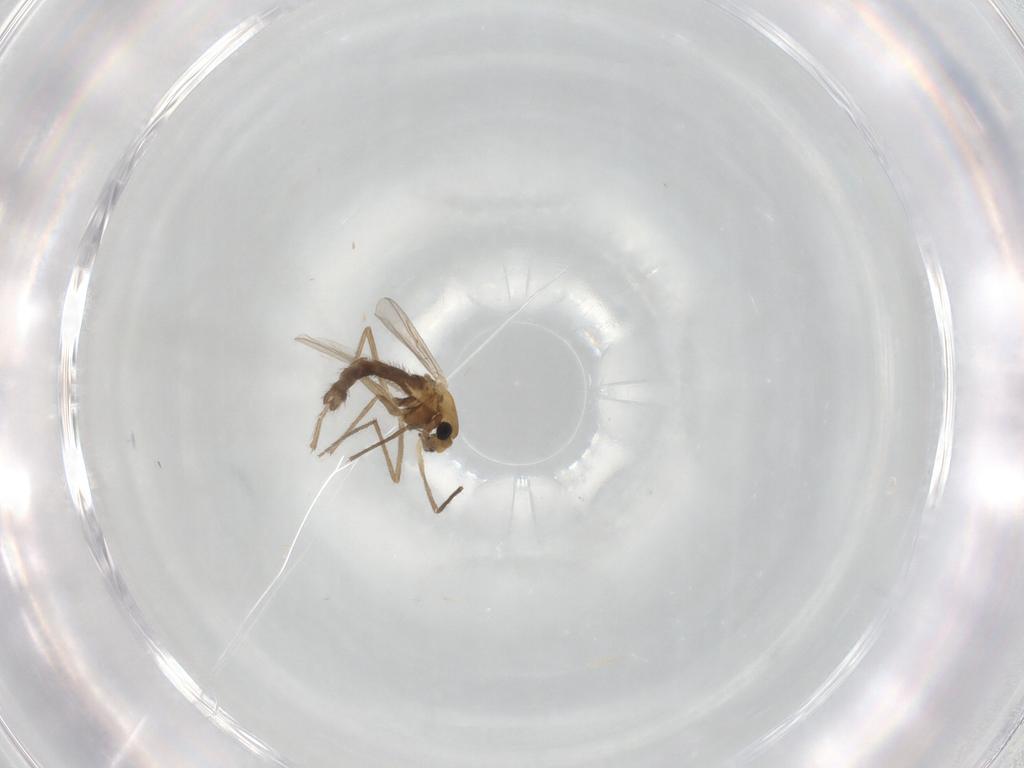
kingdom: Animalia
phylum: Arthropoda
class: Insecta
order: Diptera
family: Chironomidae
